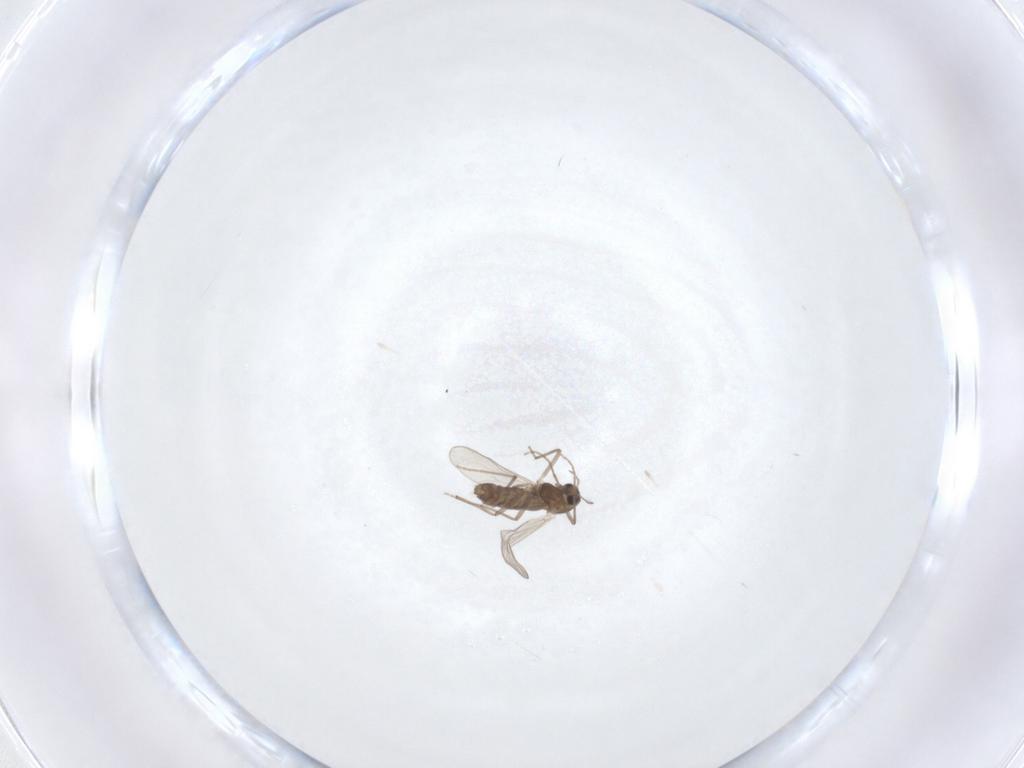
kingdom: Animalia
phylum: Arthropoda
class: Insecta
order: Diptera
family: Chironomidae
